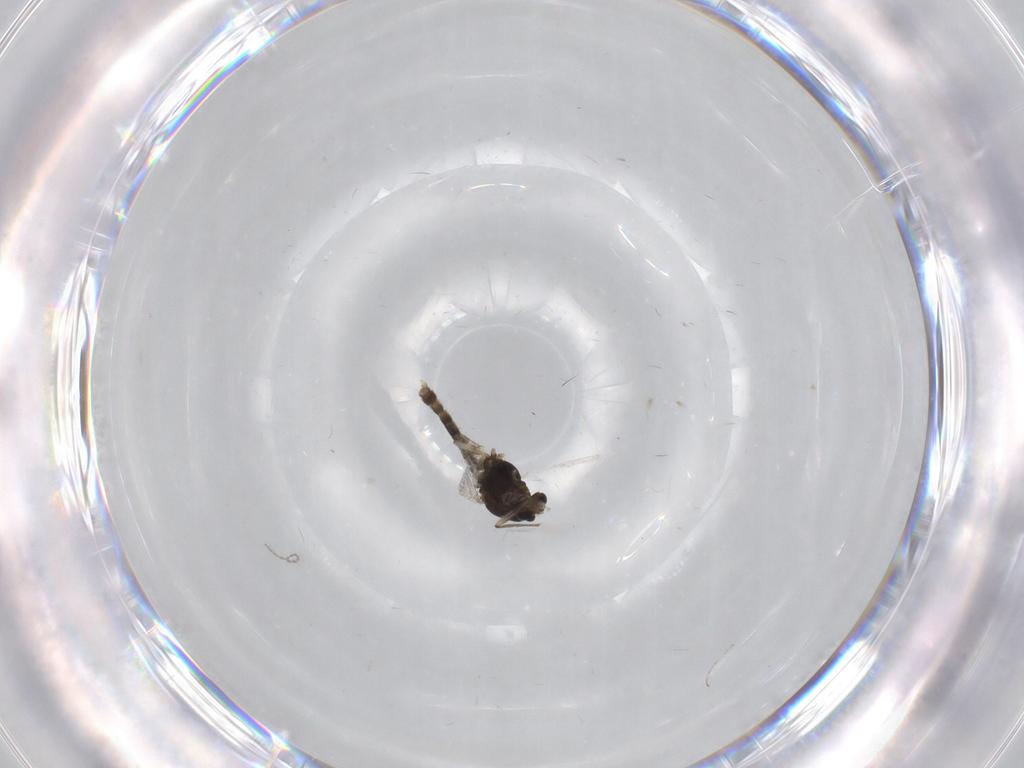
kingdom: Animalia
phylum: Arthropoda
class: Insecta
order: Diptera
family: Chironomidae
